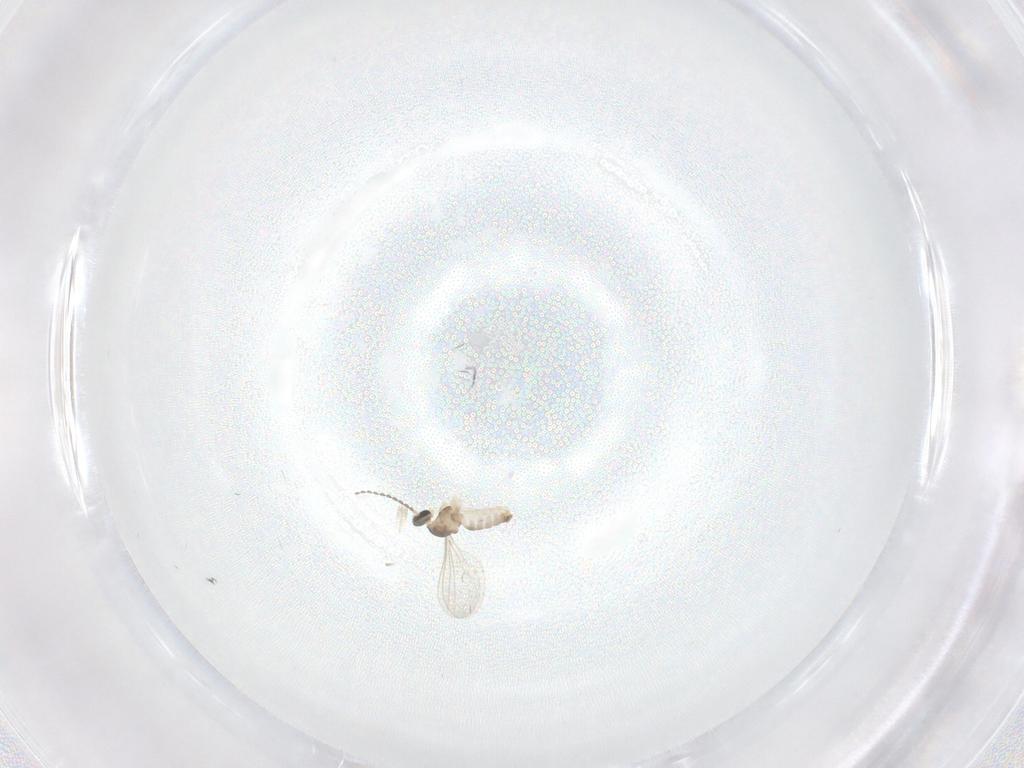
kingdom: Animalia
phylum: Arthropoda
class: Insecta
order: Diptera
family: Cecidomyiidae
